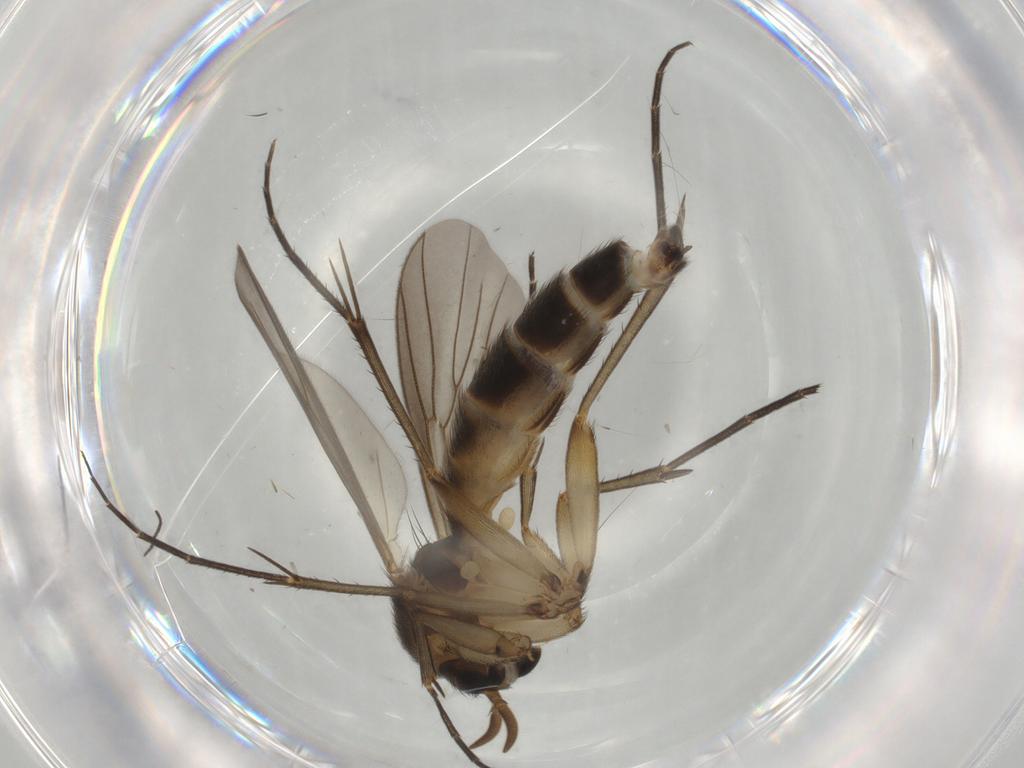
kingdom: Animalia
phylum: Arthropoda
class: Insecta
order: Diptera
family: Mycetophilidae
